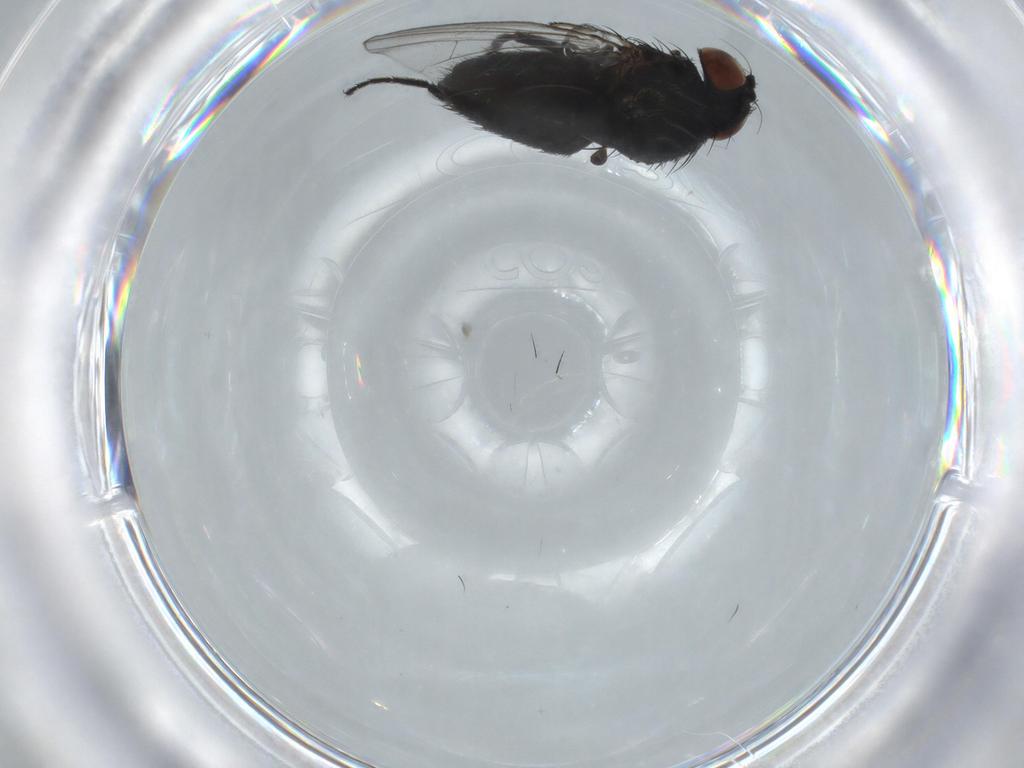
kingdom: Animalia
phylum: Arthropoda
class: Insecta
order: Diptera
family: Milichiidae
